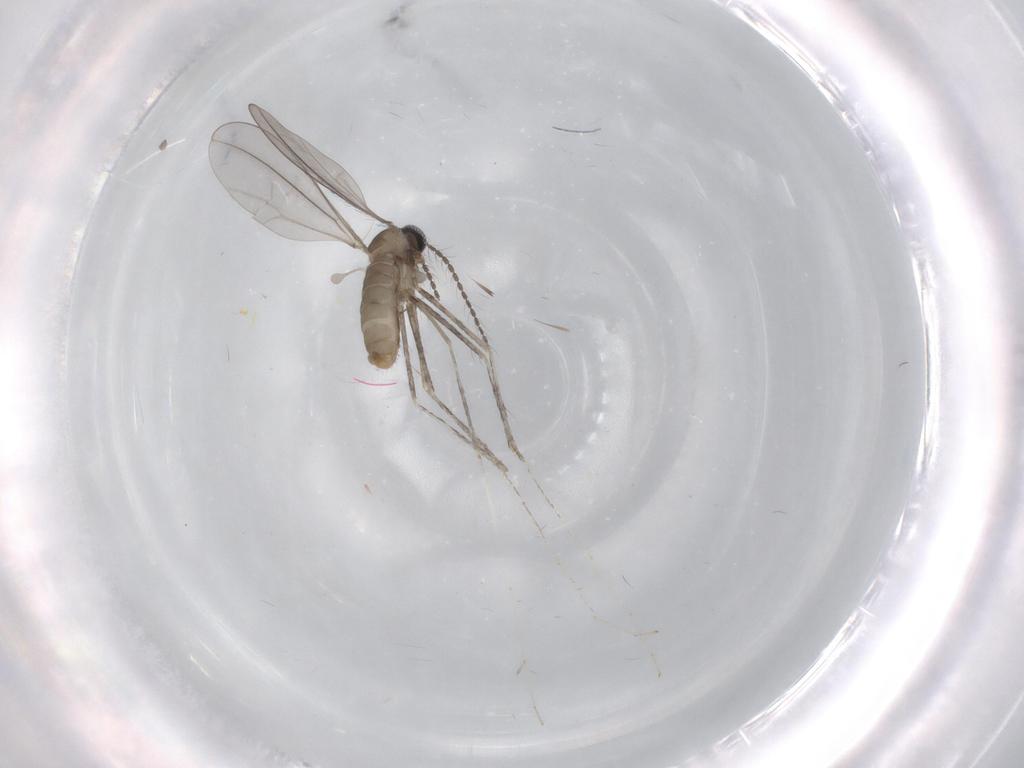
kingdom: Animalia
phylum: Arthropoda
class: Insecta
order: Diptera
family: Cecidomyiidae
